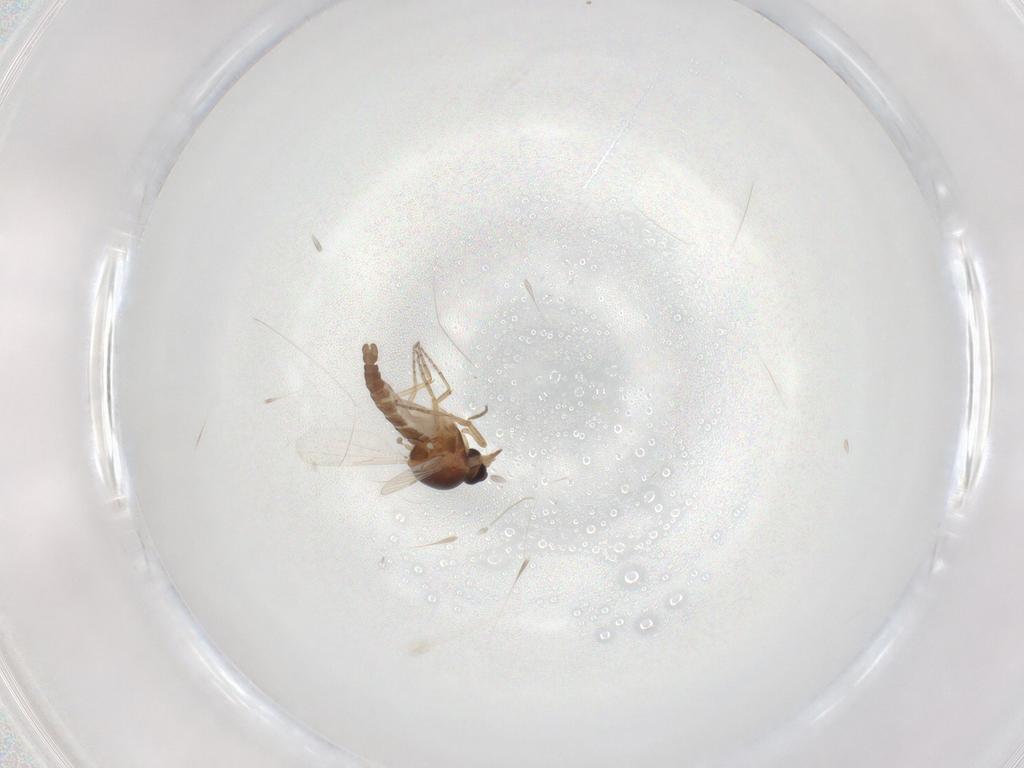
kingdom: Animalia
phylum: Arthropoda
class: Insecta
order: Diptera
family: Ceratopogonidae
